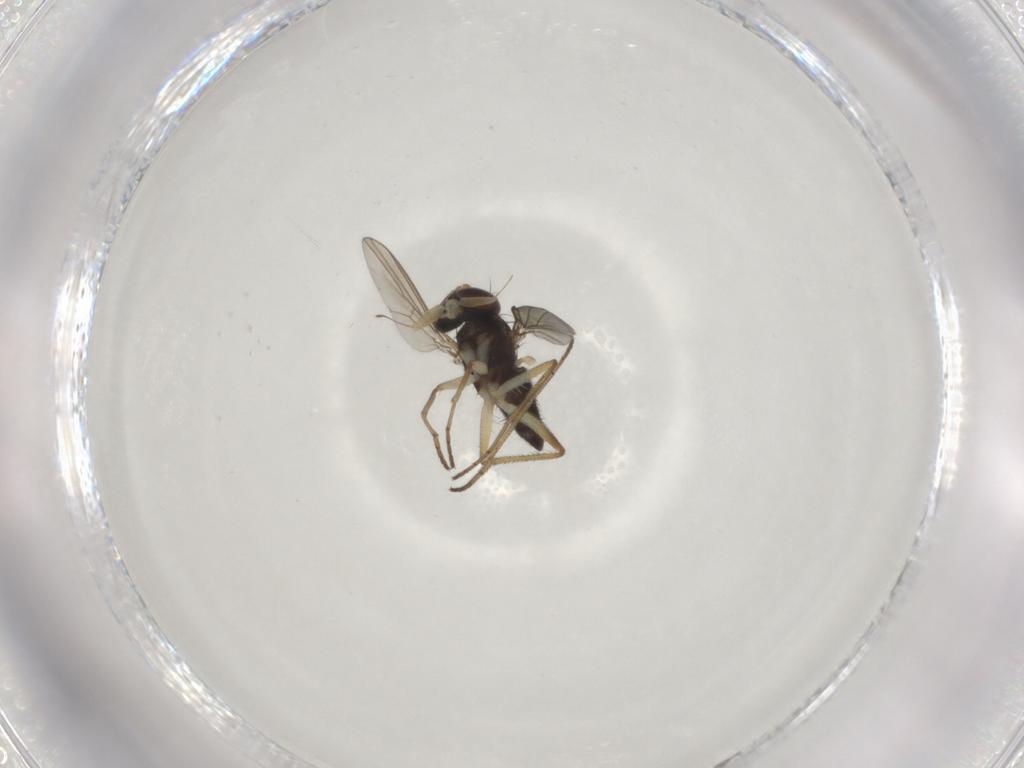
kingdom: Animalia
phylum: Arthropoda
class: Insecta
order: Diptera
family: Dolichopodidae
